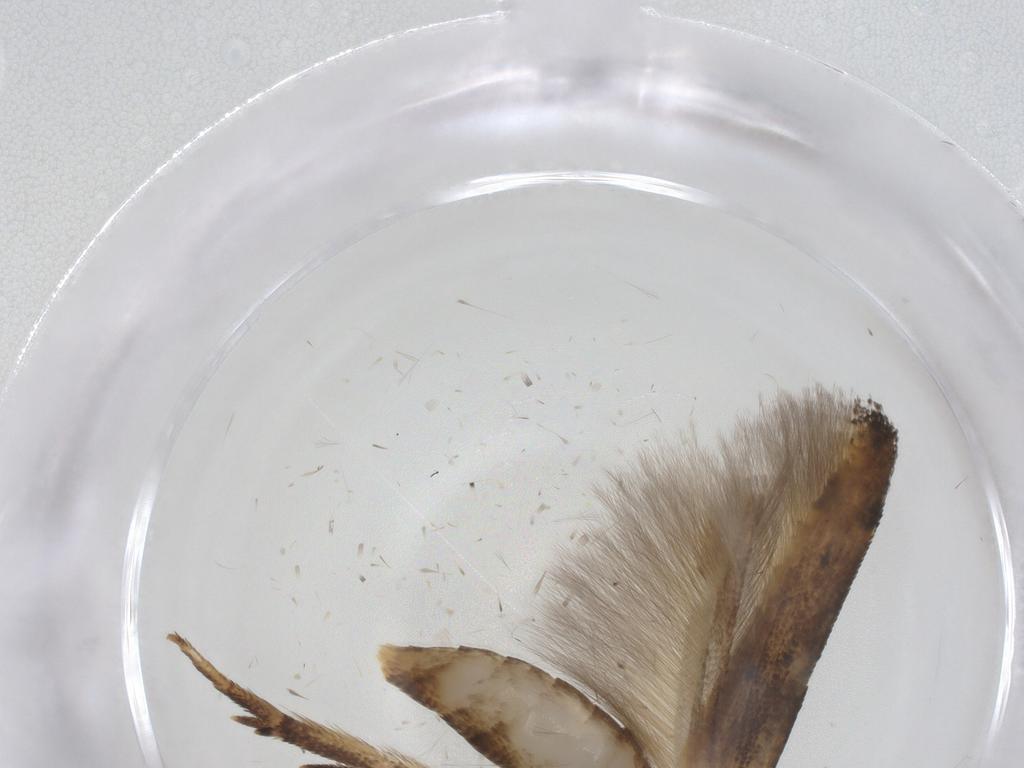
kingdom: Animalia
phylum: Arthropoda
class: Insecta
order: Lepidoptera
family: Cosmopterigidae
